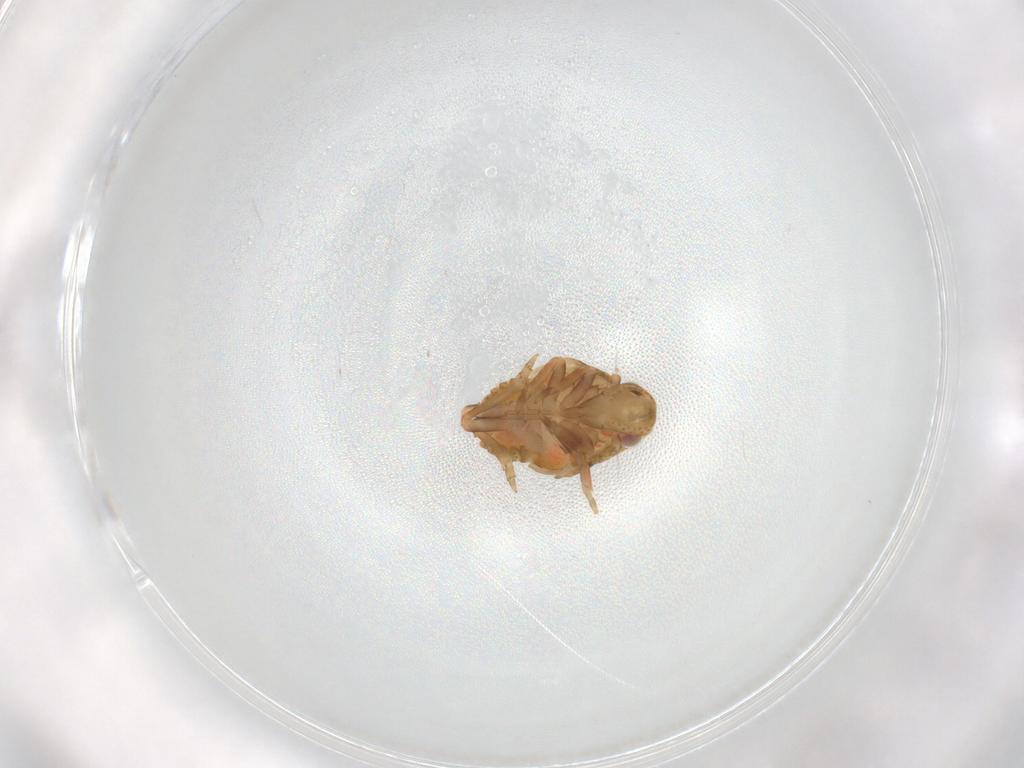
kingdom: Animalia
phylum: Arthropoda
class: Insecta
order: Hemiptera
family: Flatidae
